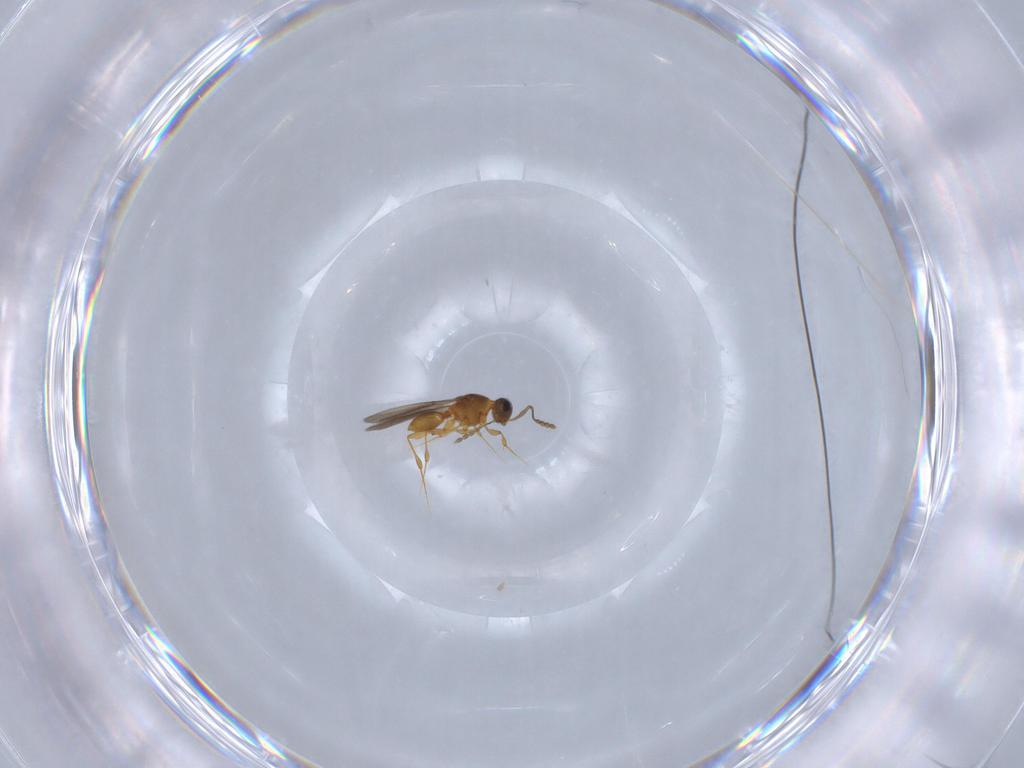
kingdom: Animalia
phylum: Arthropoda
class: Insecta
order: Hymenoptera
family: Platygastridae
